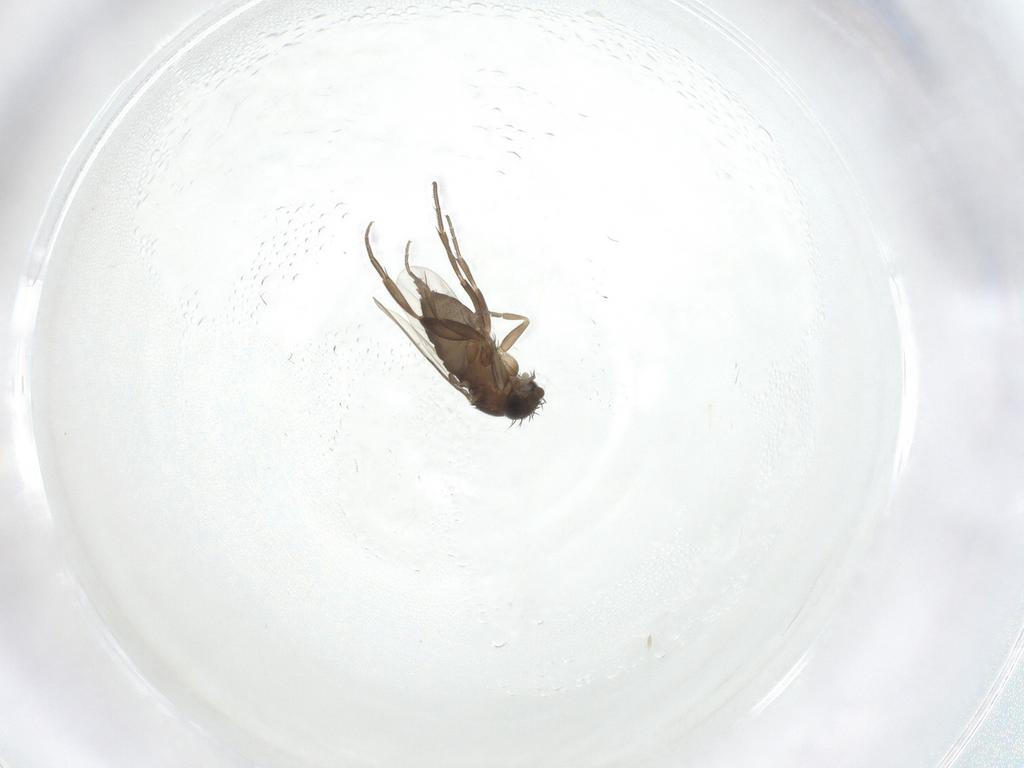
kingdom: Animalia
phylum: Arthropoda
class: Insecta
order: Diptera
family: Phoridae
